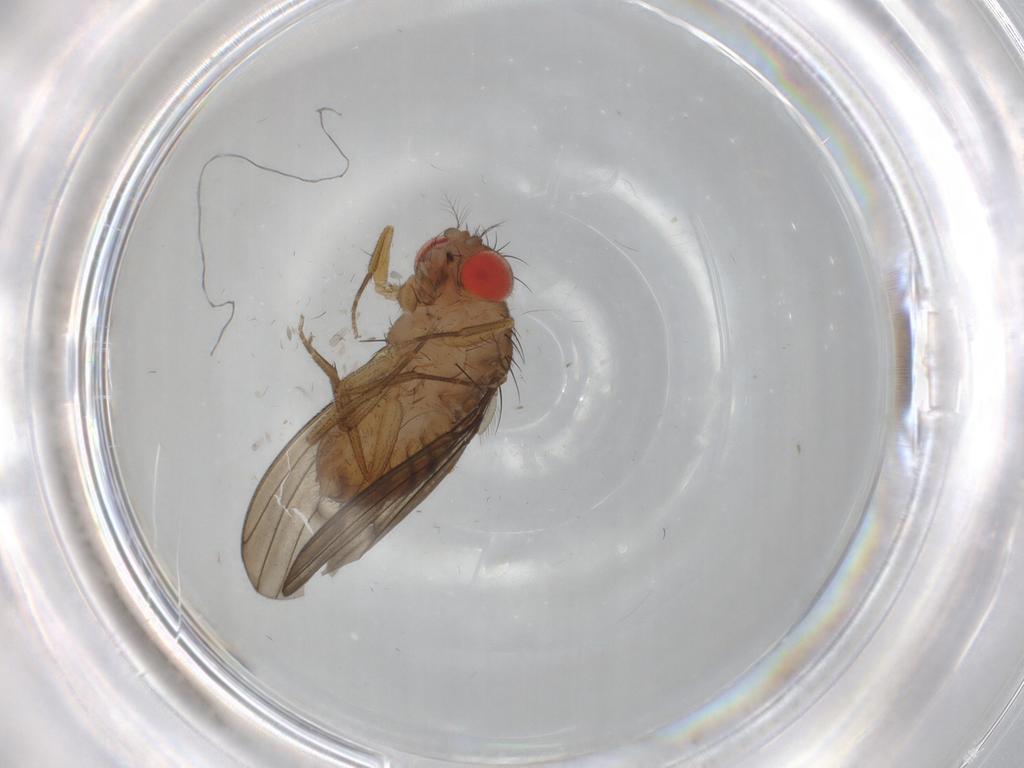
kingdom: Animalia
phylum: Arthropoda
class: Insecta
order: Diptera
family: Drosophilidae
